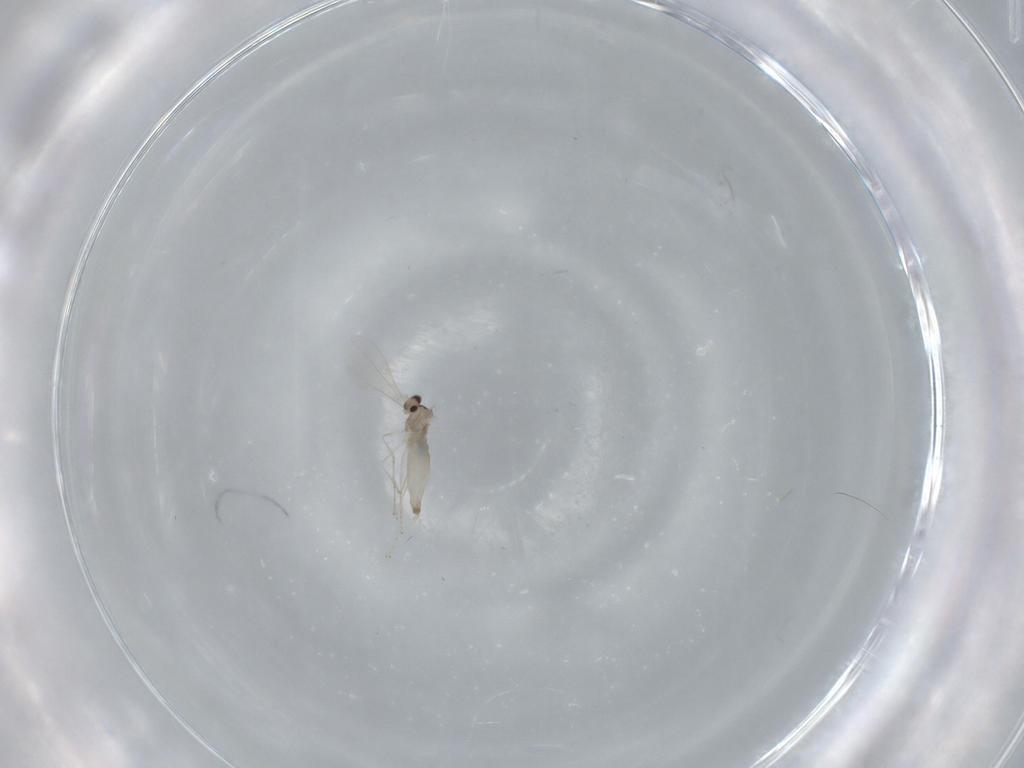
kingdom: Animalia
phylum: Arthropoda
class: Insecta
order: Diptera
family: Cecidomyiidae
